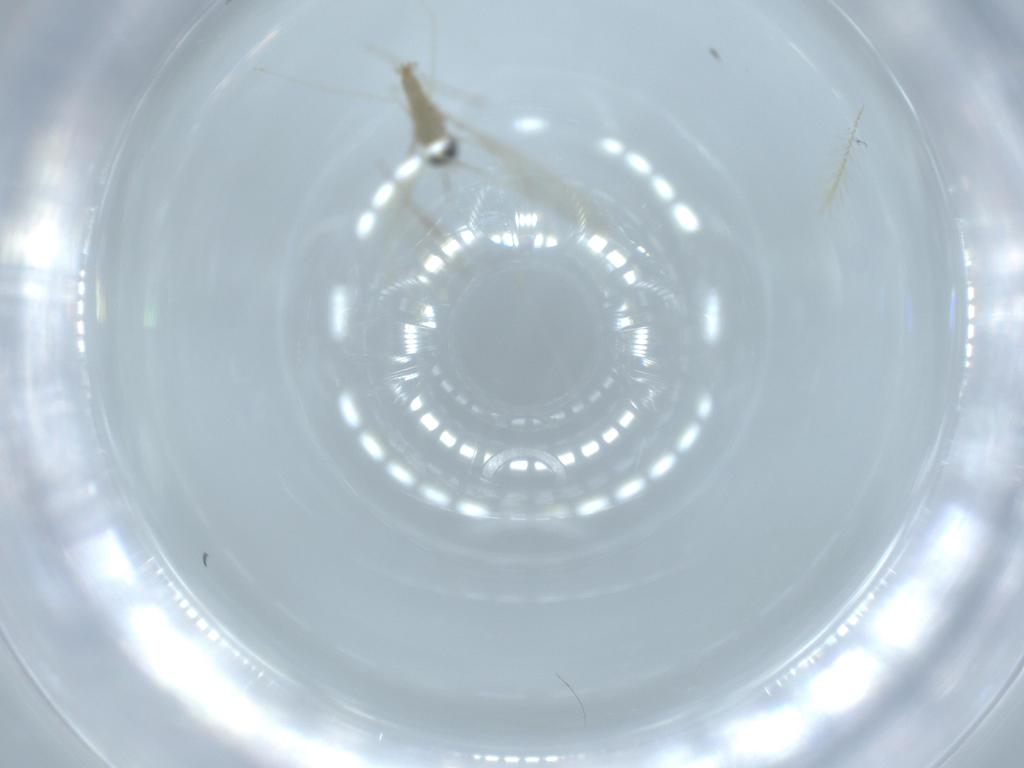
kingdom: Animalia
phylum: Arthropoda
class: Insecta
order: Diptera
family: Cecidomyiidae
